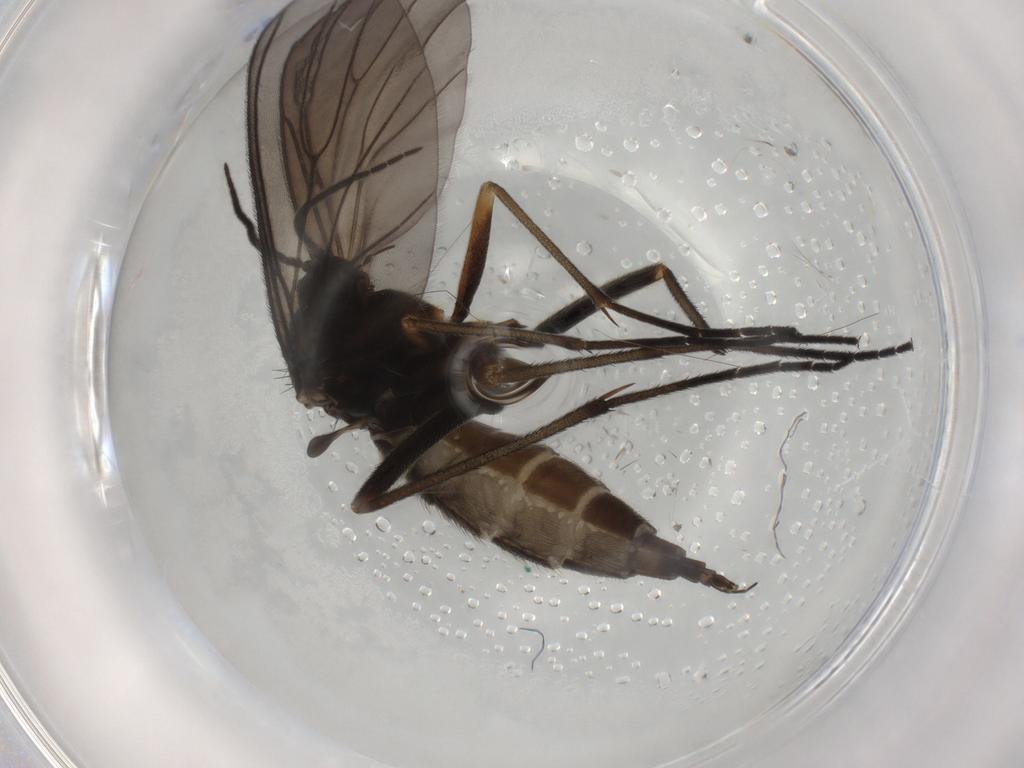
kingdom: Animalia
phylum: Arthropoda
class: Insecta
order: Diptera
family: Sciaridae
